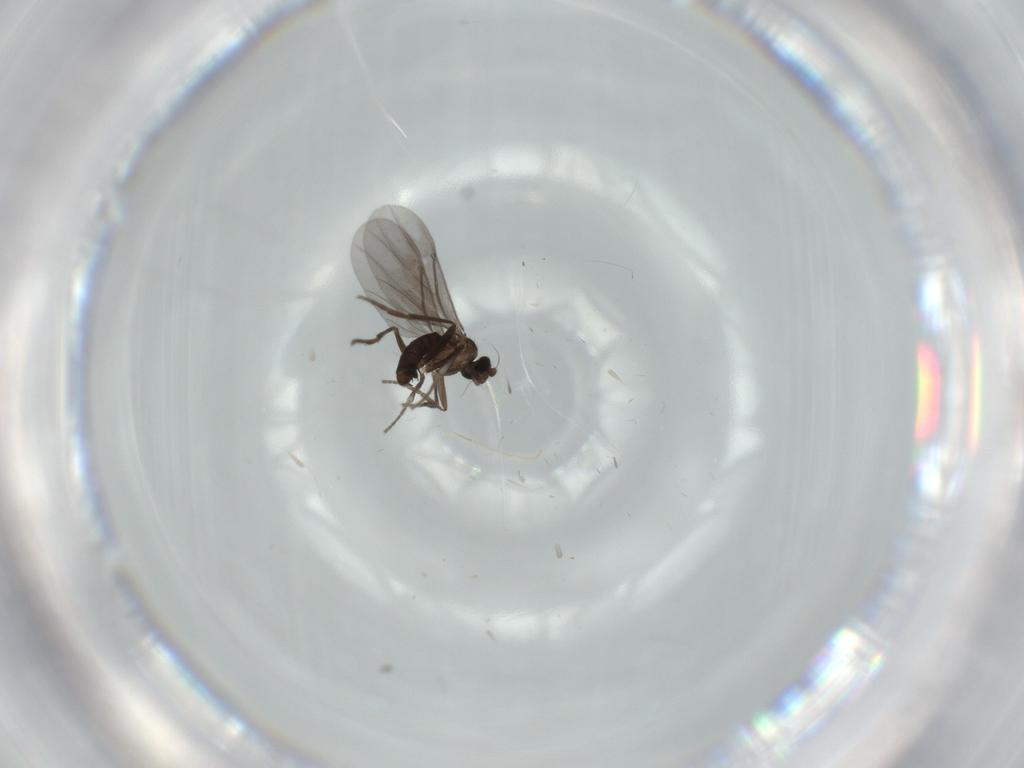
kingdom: Animalia
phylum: Arthropoda
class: Insecta
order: Diptera
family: Phoridae
